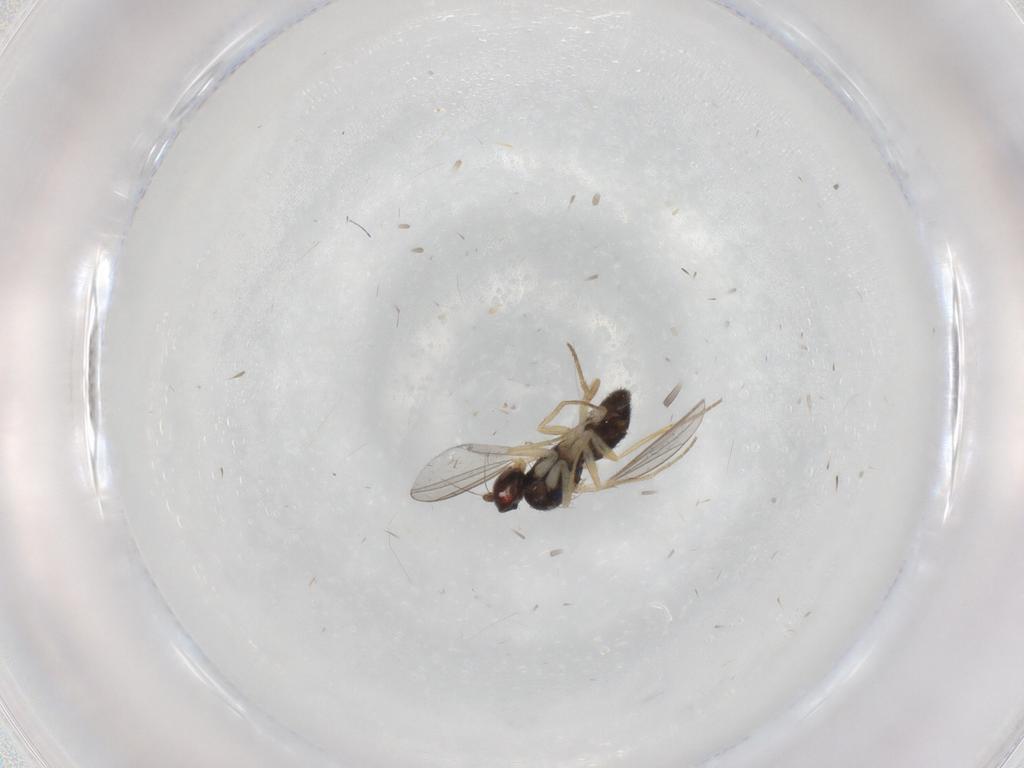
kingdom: Animalia
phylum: Arthropoda
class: Insecta
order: Diptera
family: Dolichopodidae
